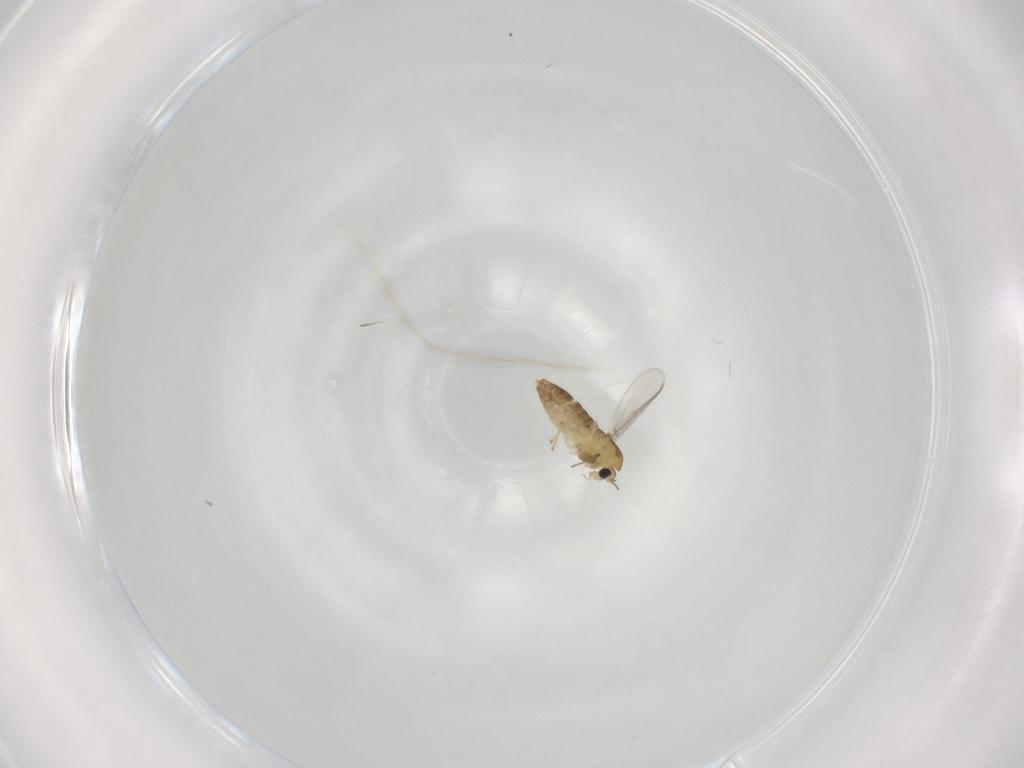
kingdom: Animalia
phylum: Arthropoda
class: Insecta
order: Diptera
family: Chironomidae
